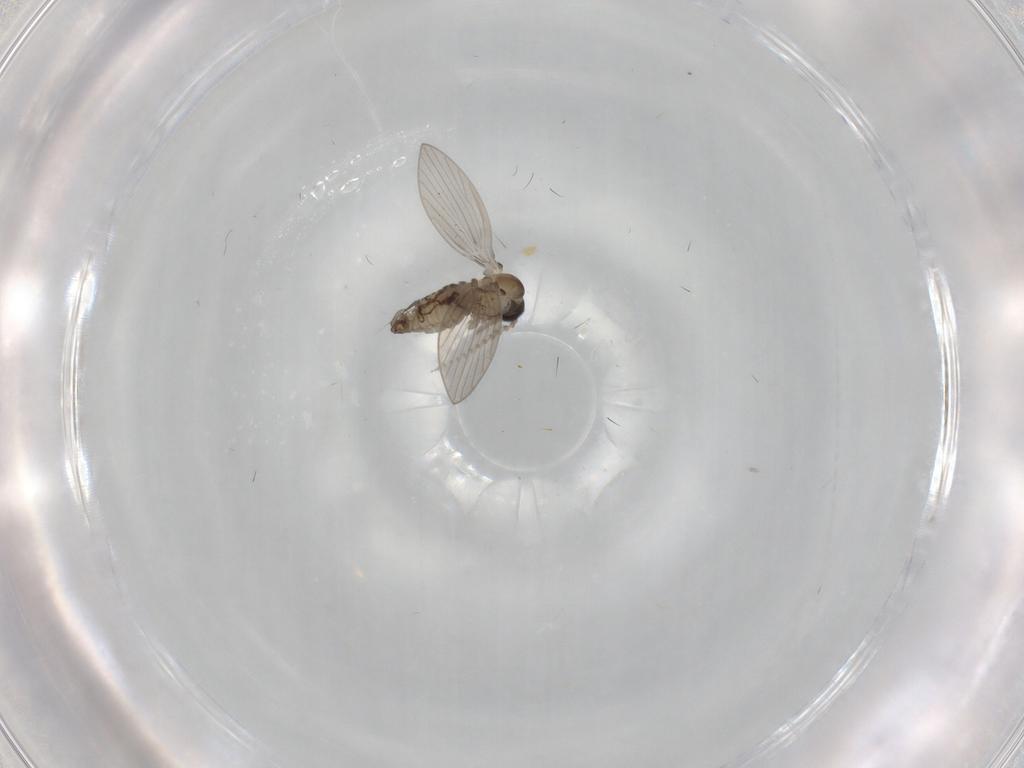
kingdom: Animalia
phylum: Arthropoda
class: Insecta
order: Diptera
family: Psychodidae
